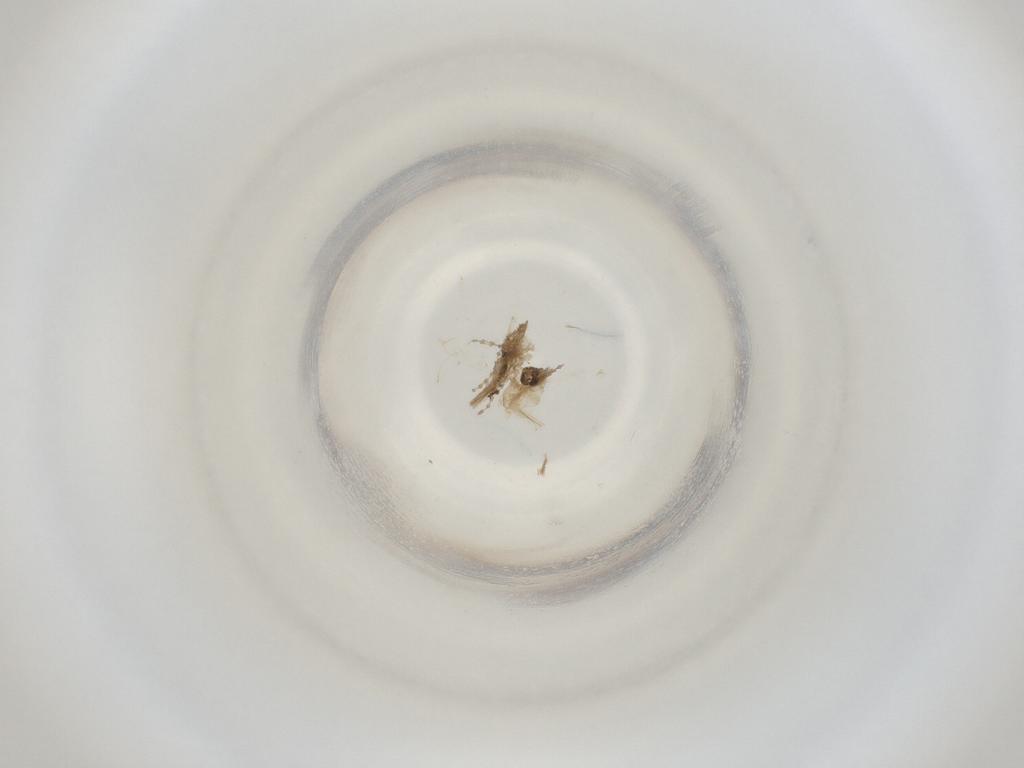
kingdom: Animalia
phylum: Arthropoda
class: Insecta
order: Diptera
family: Cecidomyiidae
